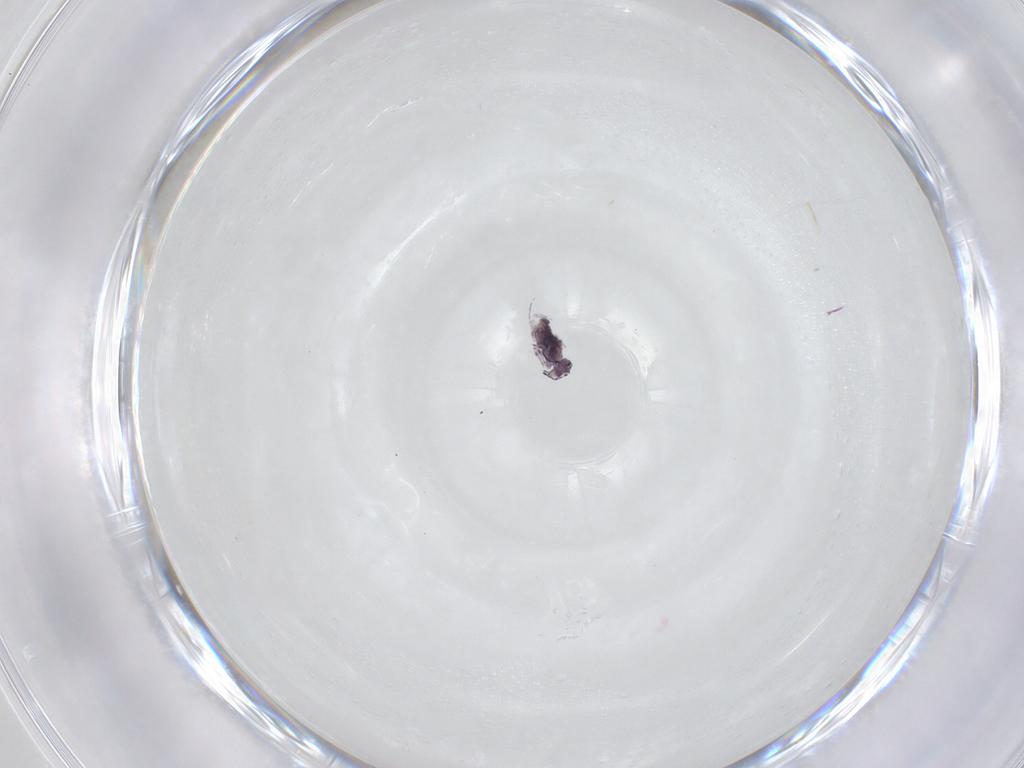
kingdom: Animalia
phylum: Arthropoda
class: Collembola
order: Symphypleona
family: Sminthuridae
